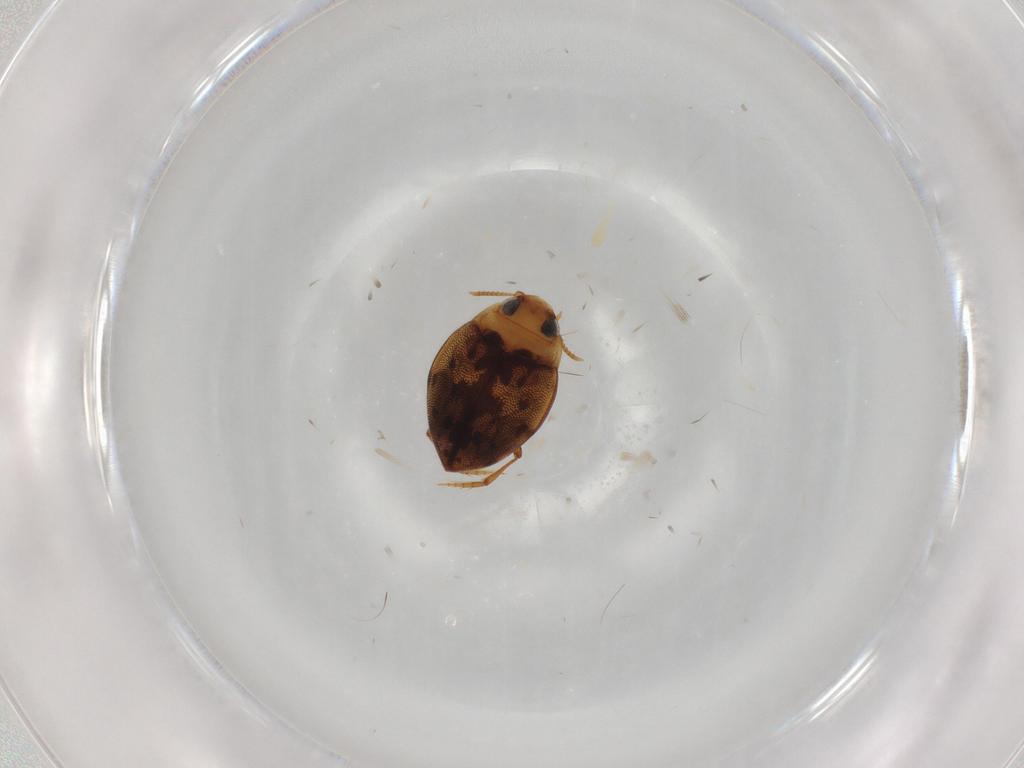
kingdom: Animalia
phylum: Arthropoda
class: Insecta
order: Coleoptera
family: Dytiscidae
